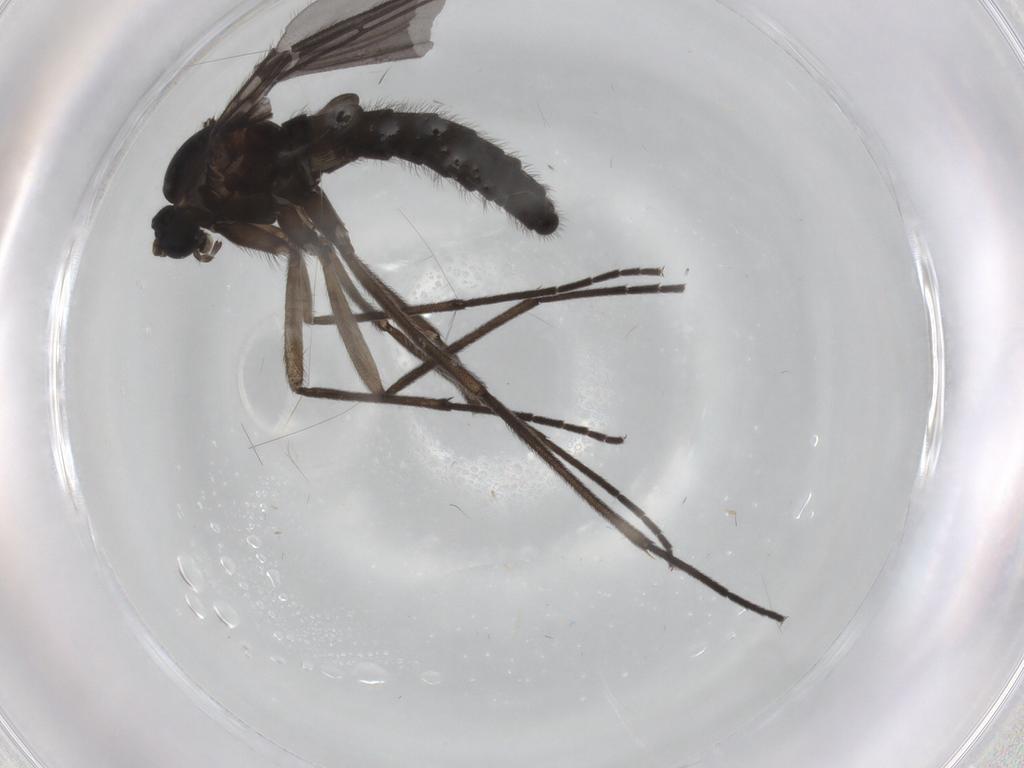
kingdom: Animalia
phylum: Arthropoda
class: Insecta
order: Diptera
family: Sciaridae
